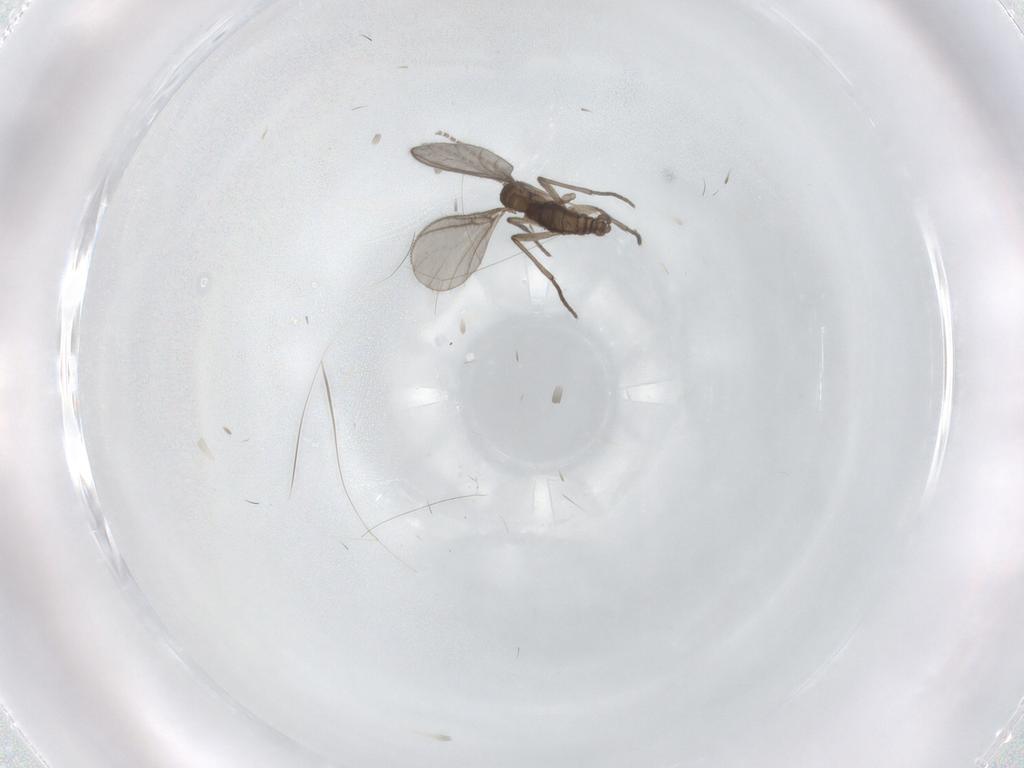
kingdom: Animalia
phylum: Arthropoda
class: Insecta
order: Diptera
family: Sciaridae
